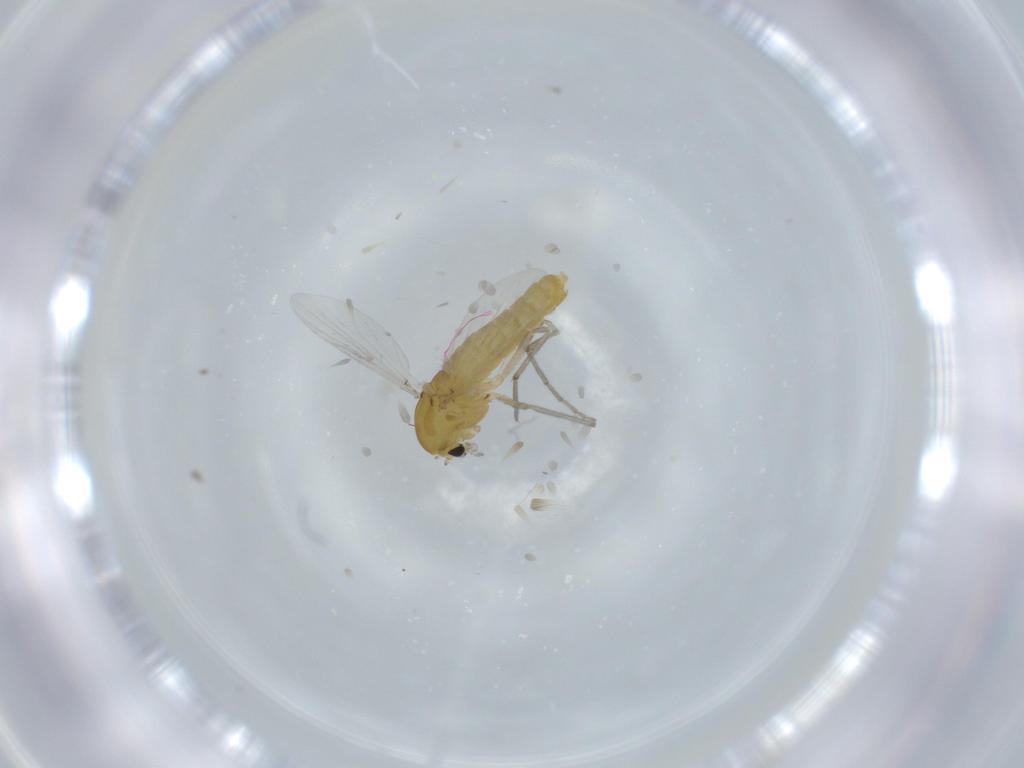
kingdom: Animalia
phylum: Arthropoda
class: Insecta
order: Diptera
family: Chironomidae
